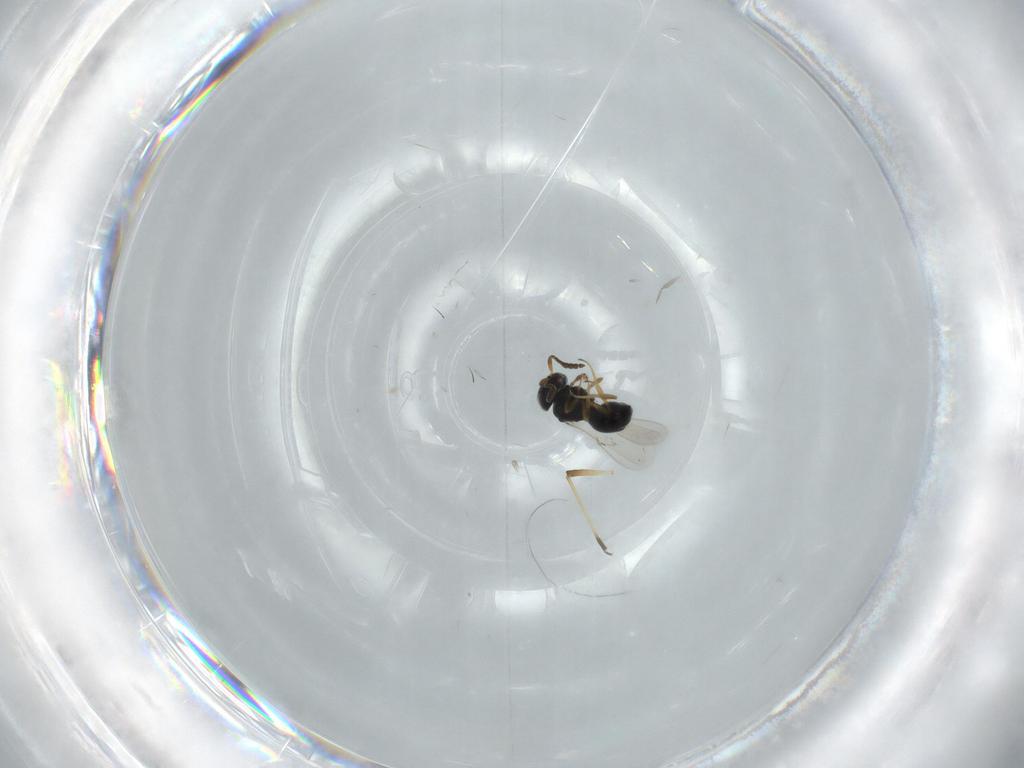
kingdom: Animalia
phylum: Arthropoda
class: Insecta
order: Hymenoptera
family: Scelionidae
